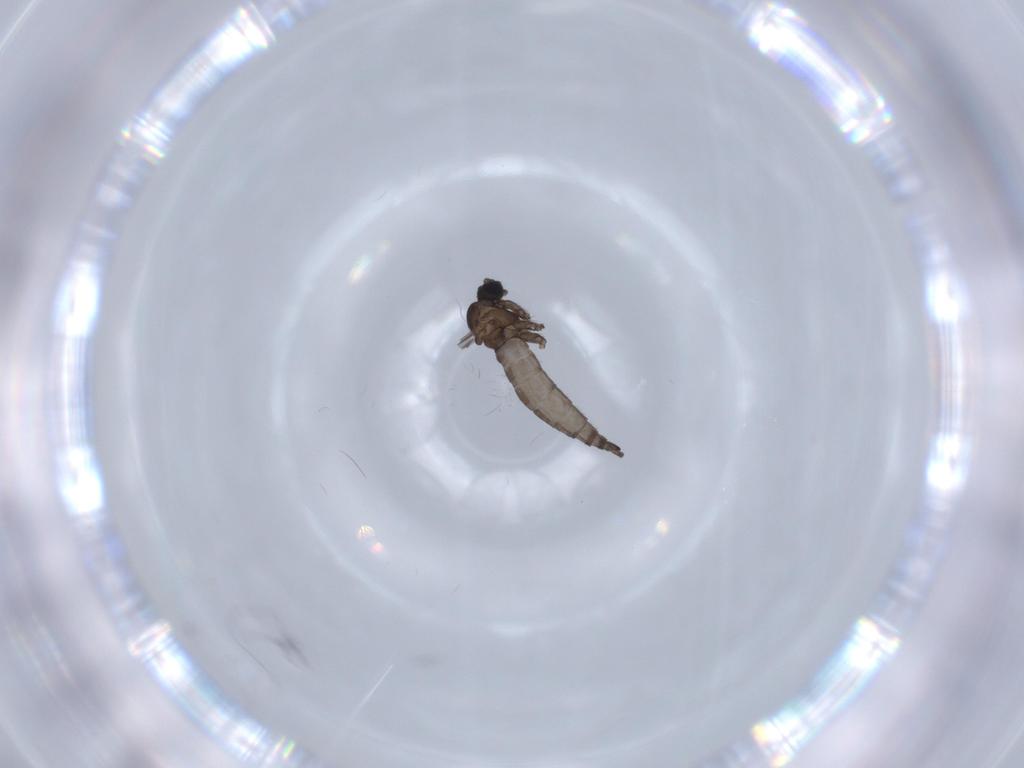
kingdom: Animalia
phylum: Arthropoda
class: Insecta
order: Diptera
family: Sciaridae
